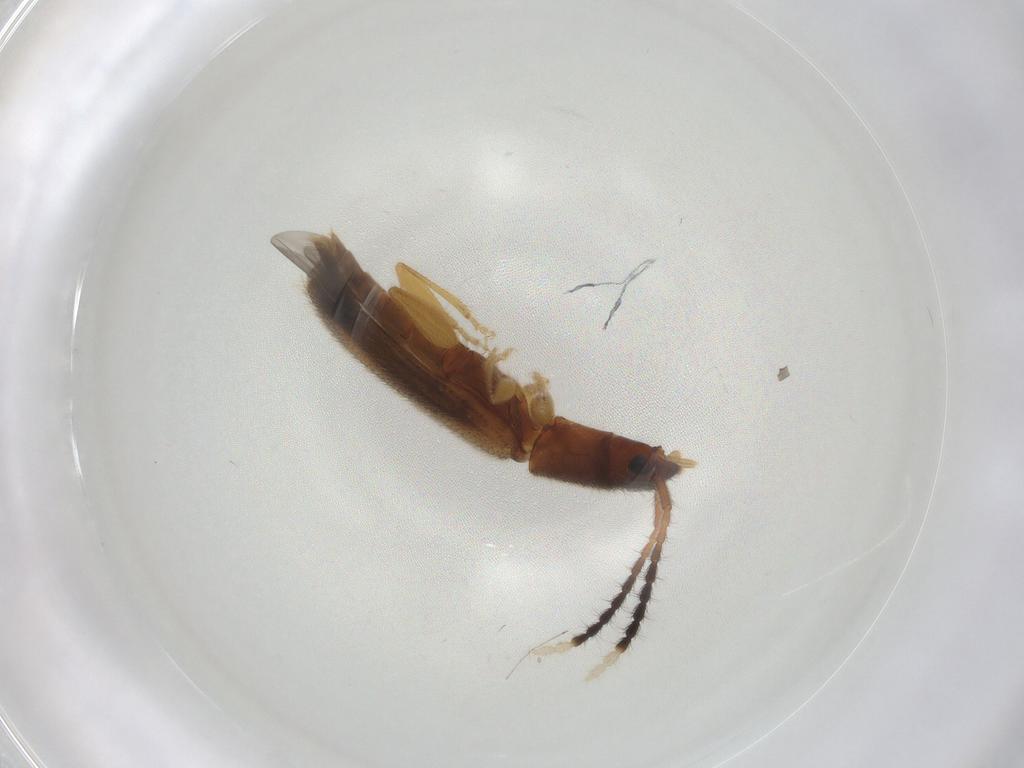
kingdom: Animalia
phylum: Arthropoda
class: Insecta
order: Coleoptera
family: Silvanidae
